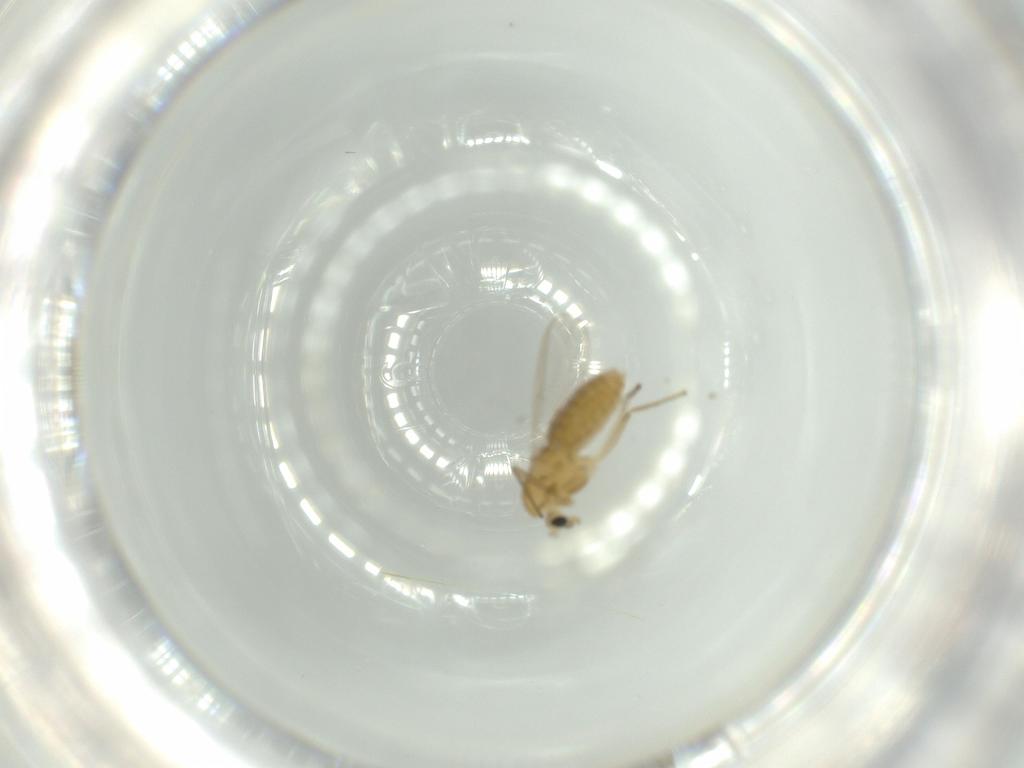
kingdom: Animalia
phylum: Arthropoda
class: Insecta
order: Diptera
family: Chironomidae
